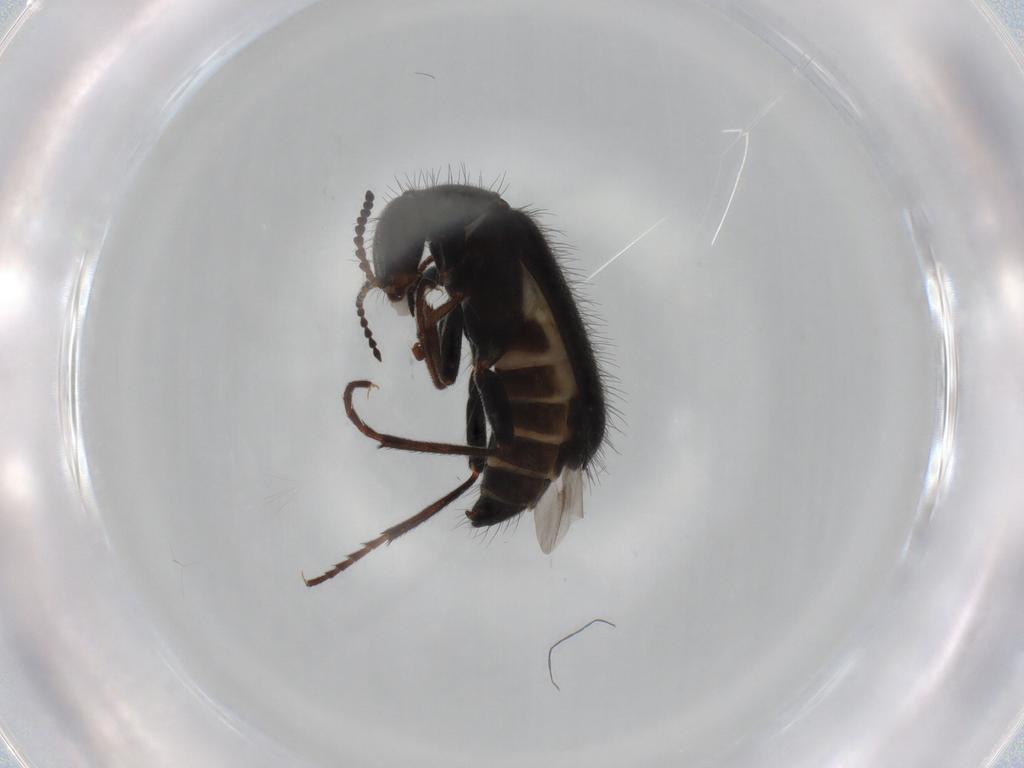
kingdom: Animalia
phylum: Arthropoda
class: Insecta
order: Coleoptera
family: Melyridae
